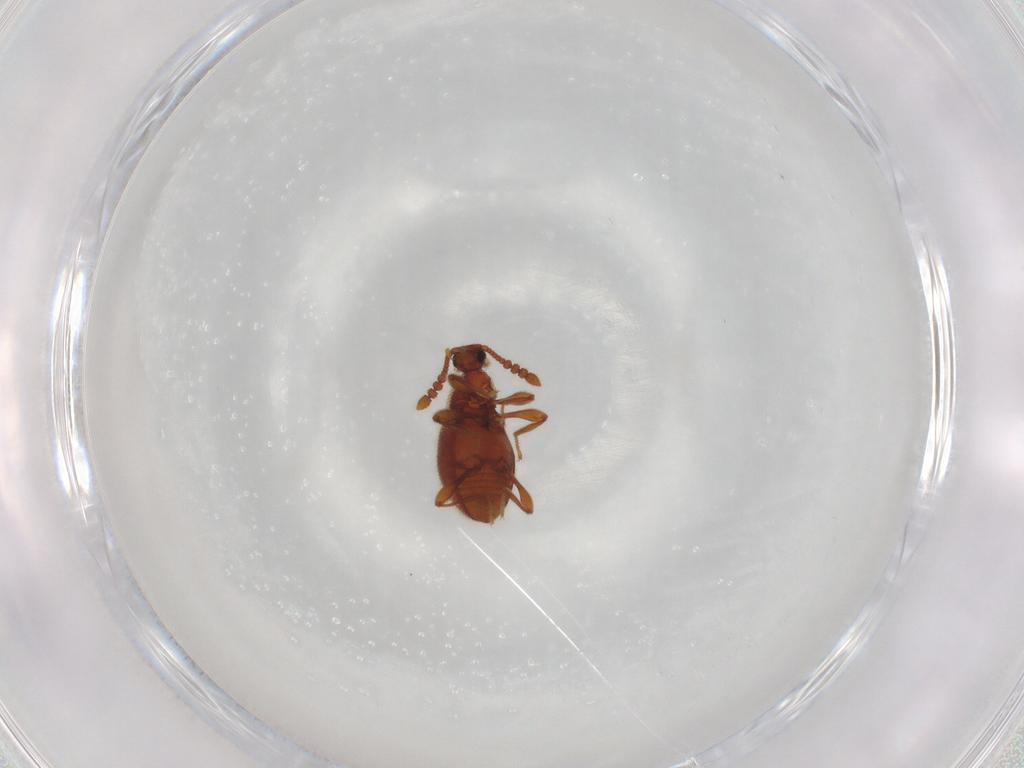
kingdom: Animalia
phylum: Arthropoda
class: Insecta
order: Coleoptera
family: Staphylinidae
